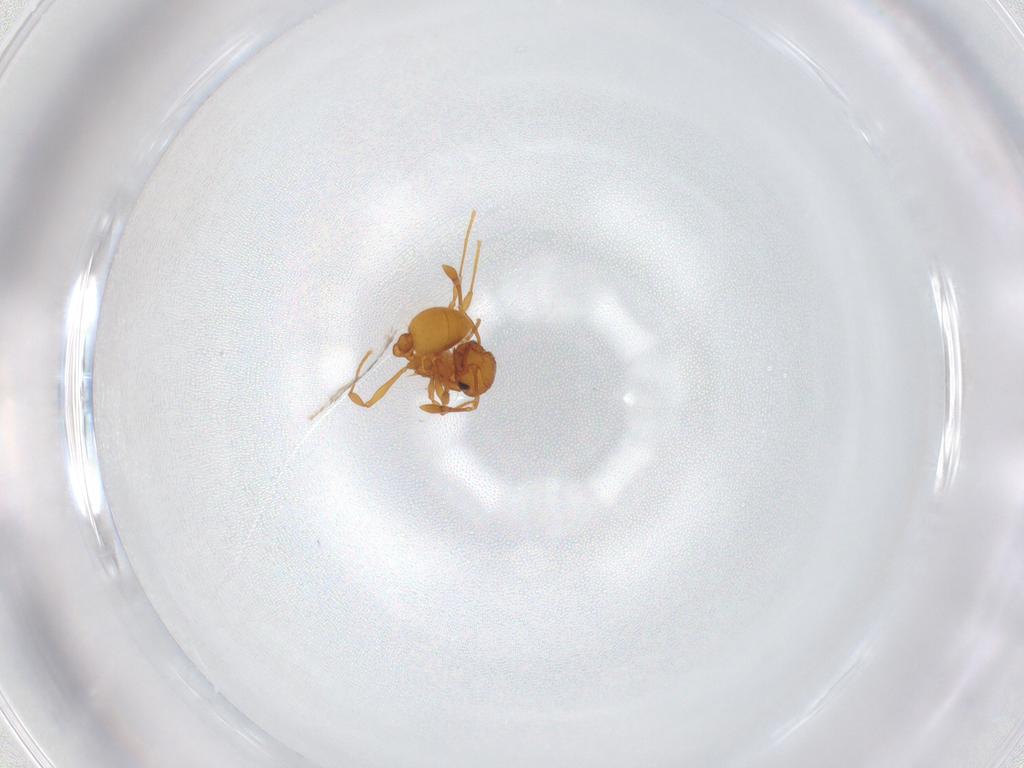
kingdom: Animalia
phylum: Arthropoda
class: Insecta
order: Hymenoptera
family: Formicidae
